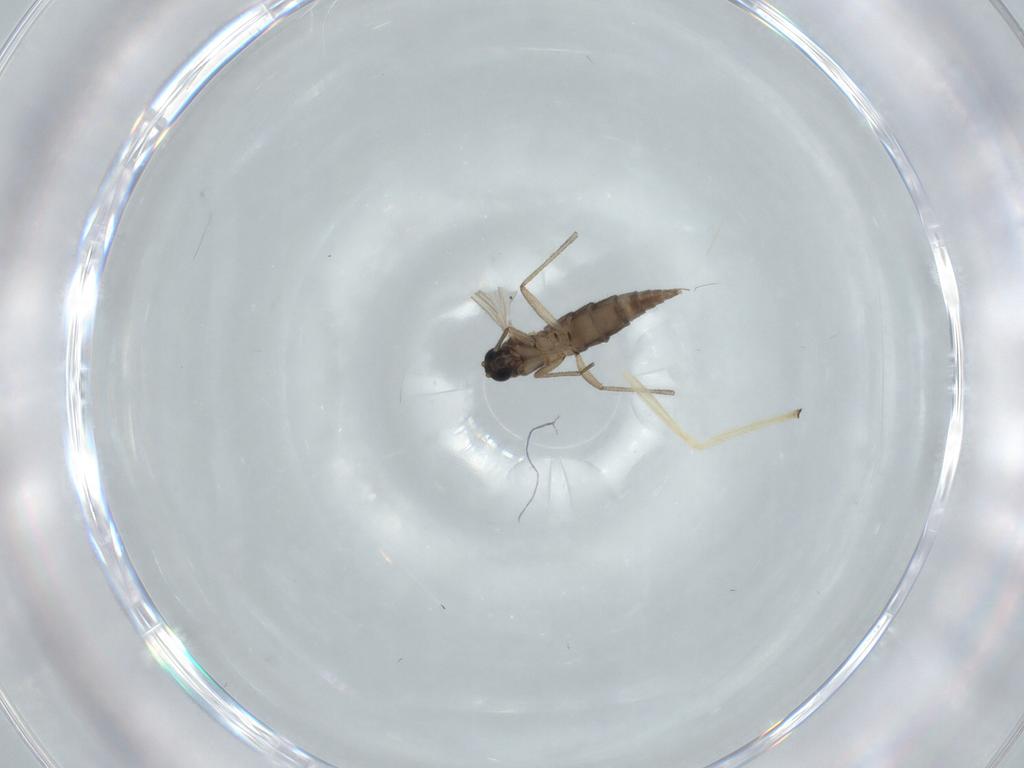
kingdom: Animalia
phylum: Arthropoda
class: Insecta
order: Diptera
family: Sciaridae
